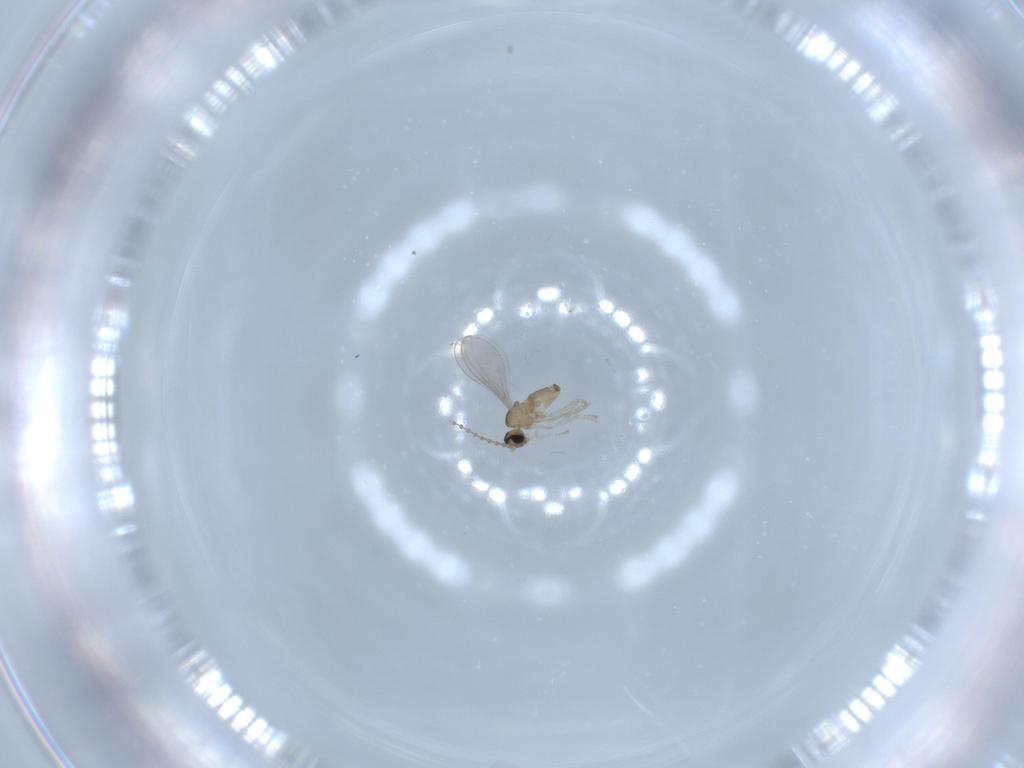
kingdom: Animalia
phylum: Arthropoda
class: Insecta
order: Diptera
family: Cecidomyiidae
